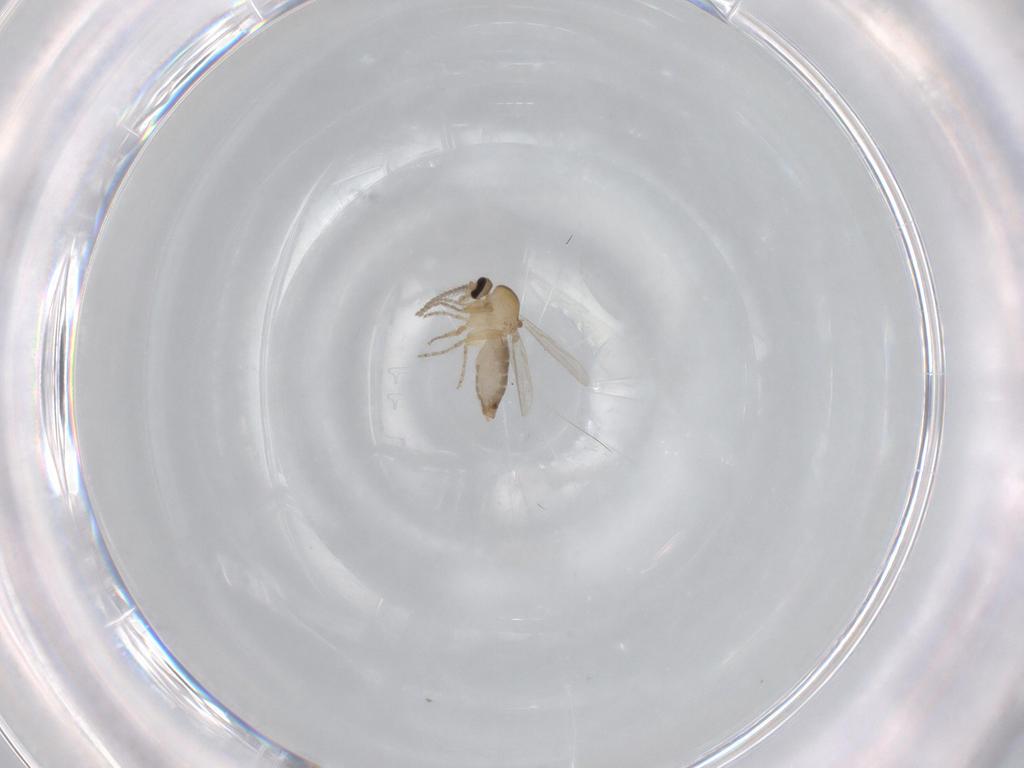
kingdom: Animalia
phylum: Arthropoda
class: Insecta
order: Diptera
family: Ceratopogonidae
